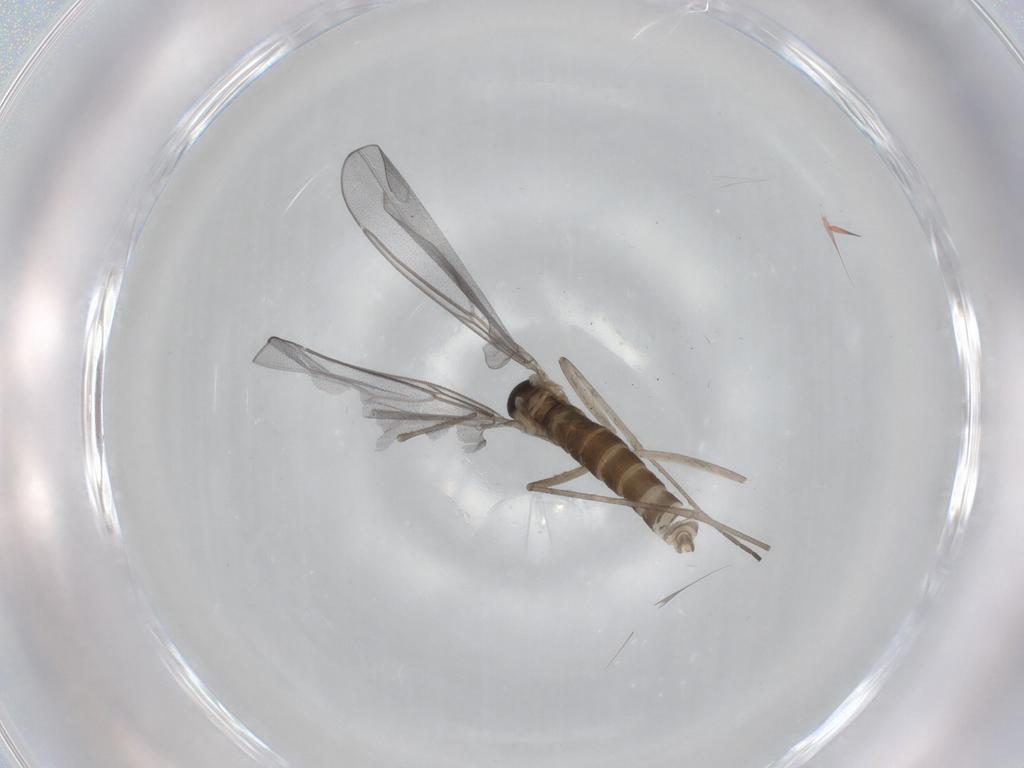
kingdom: Animalia
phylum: Arthropoda
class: Insecta
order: Diptera
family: Cecidomyiidae
